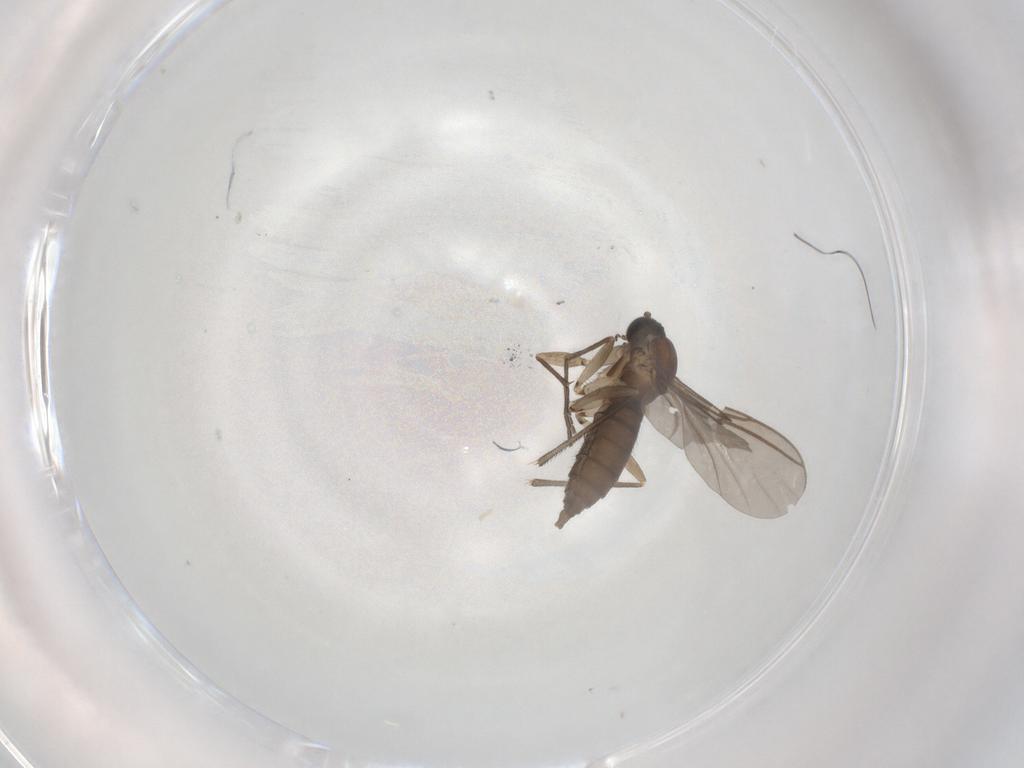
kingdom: Animalia
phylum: Arthropoda
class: Insecta
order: Diptera
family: Sciaridae
